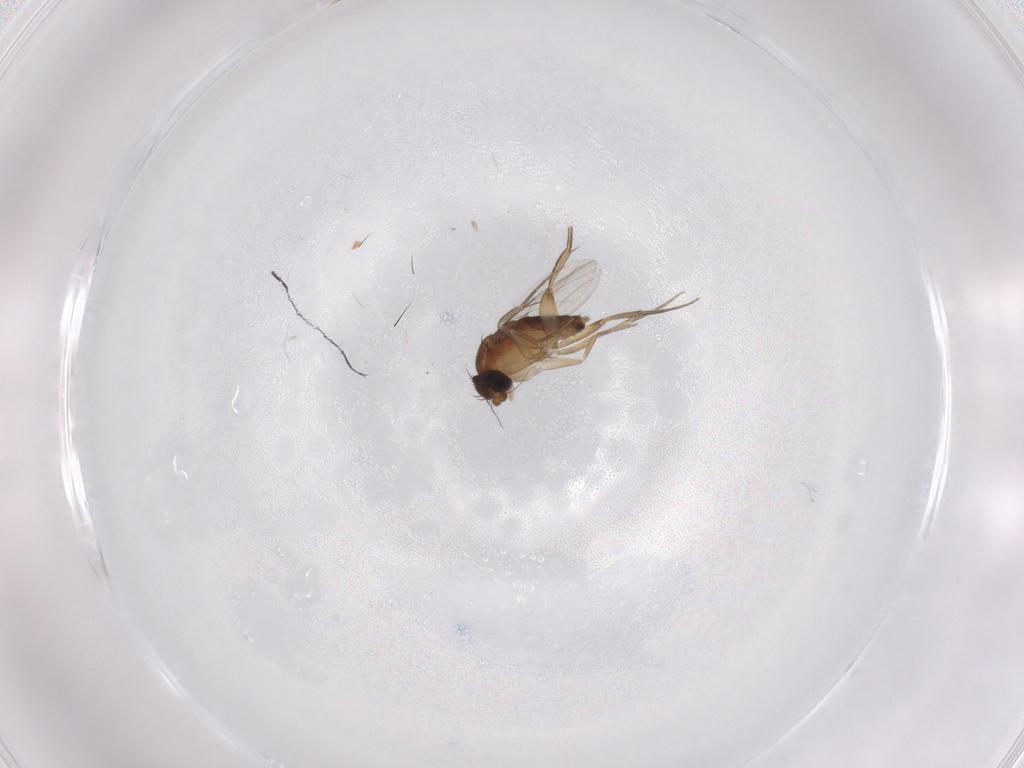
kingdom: Animalia
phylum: Arthropoda
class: Insecta
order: Diptera
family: Phoridae
